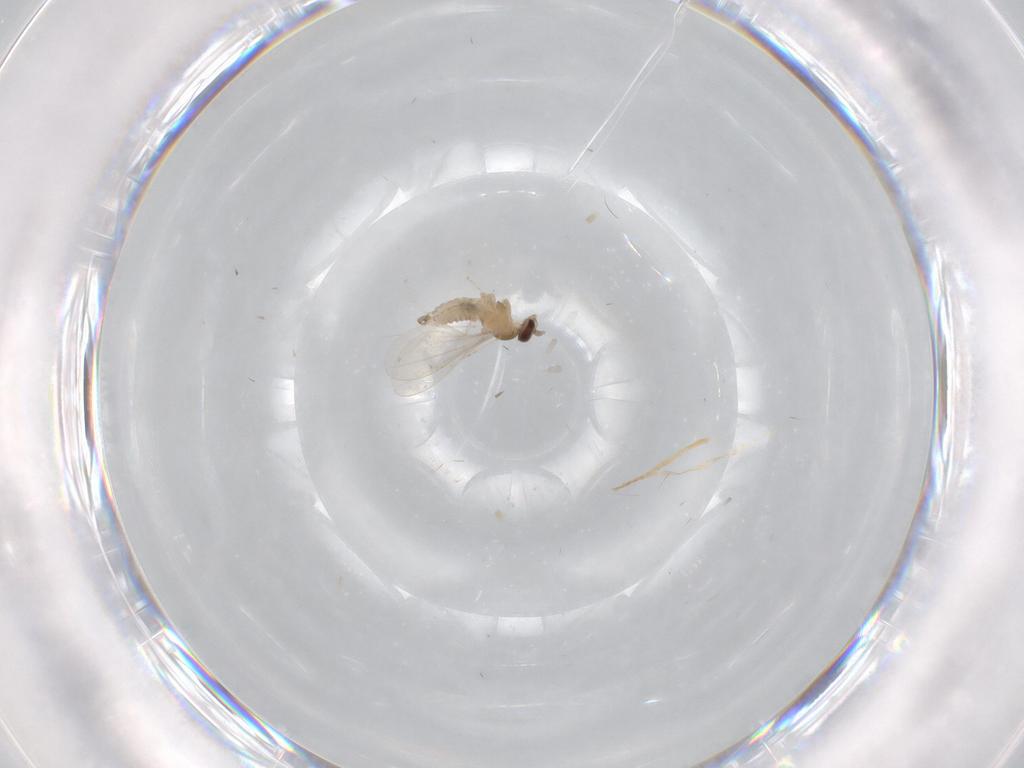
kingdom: Animalia
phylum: Arthropoda
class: Insecta
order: Diptera
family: Cecidomyiidae
